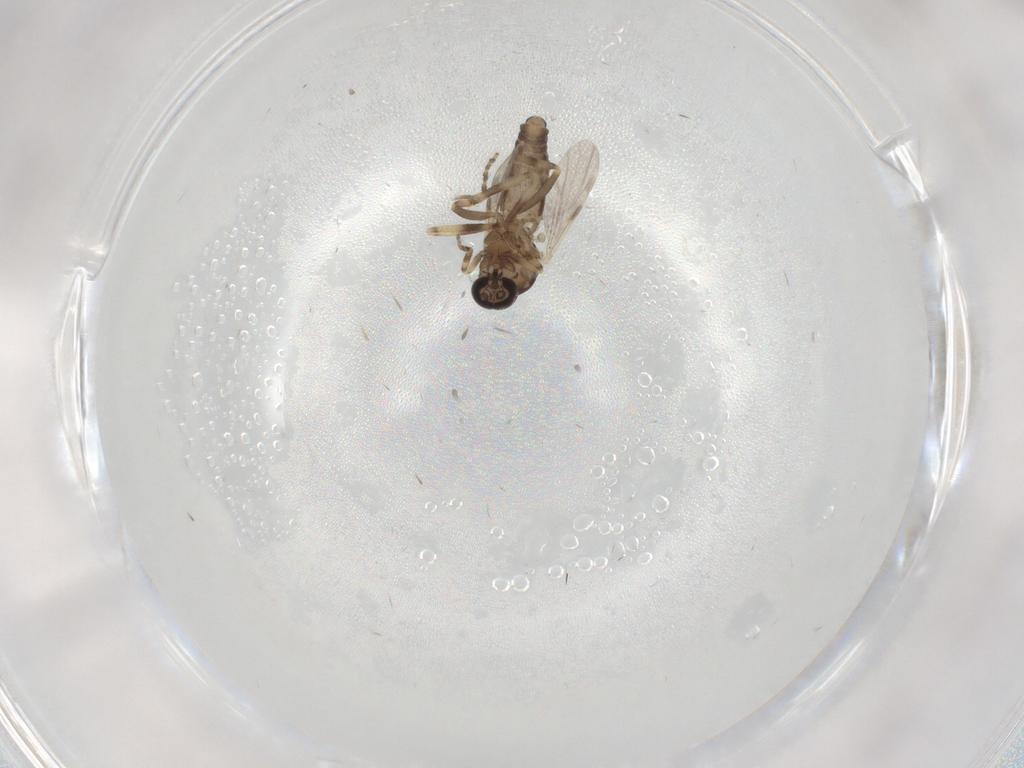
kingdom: Animalia
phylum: Arthropoda
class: Insecta
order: Diptera
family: Ceratopogonidae
